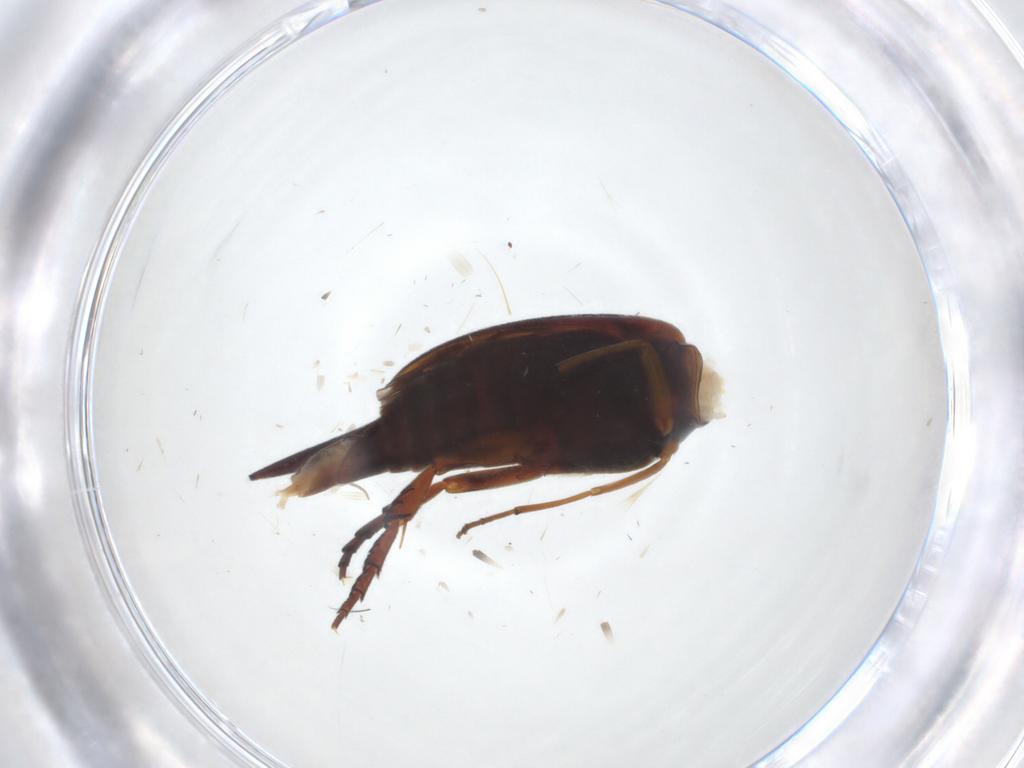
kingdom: Animalia
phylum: Arthropoda
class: Insecta
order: Coleoptera
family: Mordellidae
